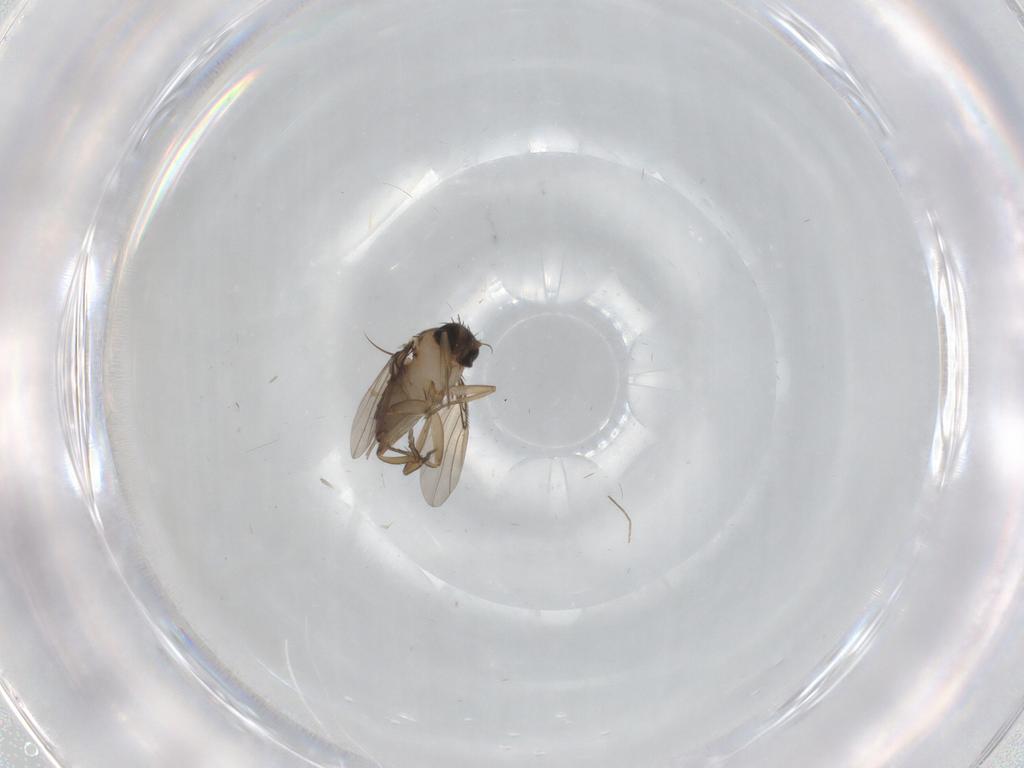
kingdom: Animalia
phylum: Arthropoda
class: Insecta
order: Diptera
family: Phoridae
